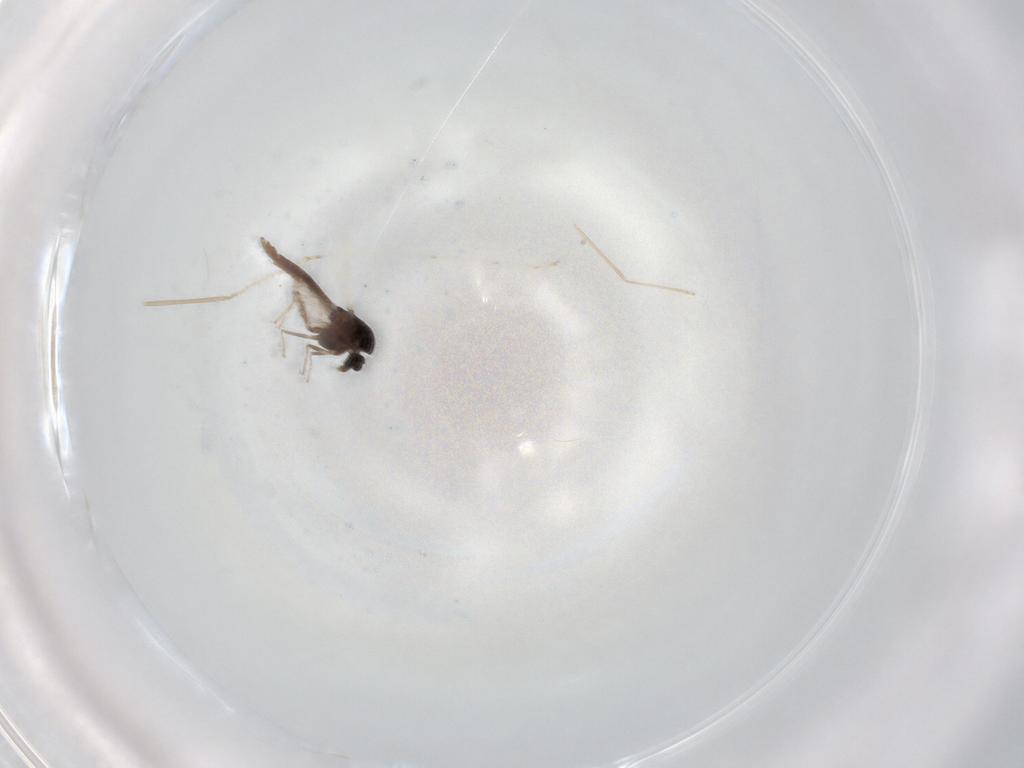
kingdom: Animalia
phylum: Arthropoda
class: Insecta
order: Diptera
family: Chironomidae
